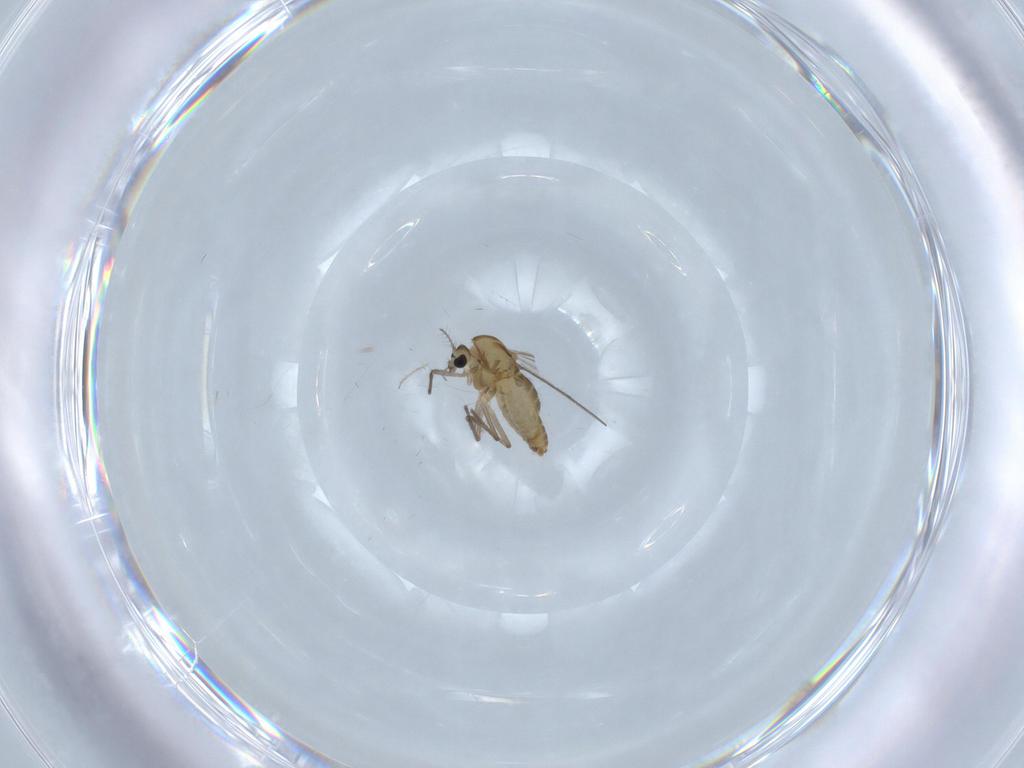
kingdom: Animalia
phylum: Arthropoda
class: Insecta
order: Diptera
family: Chironomidae
